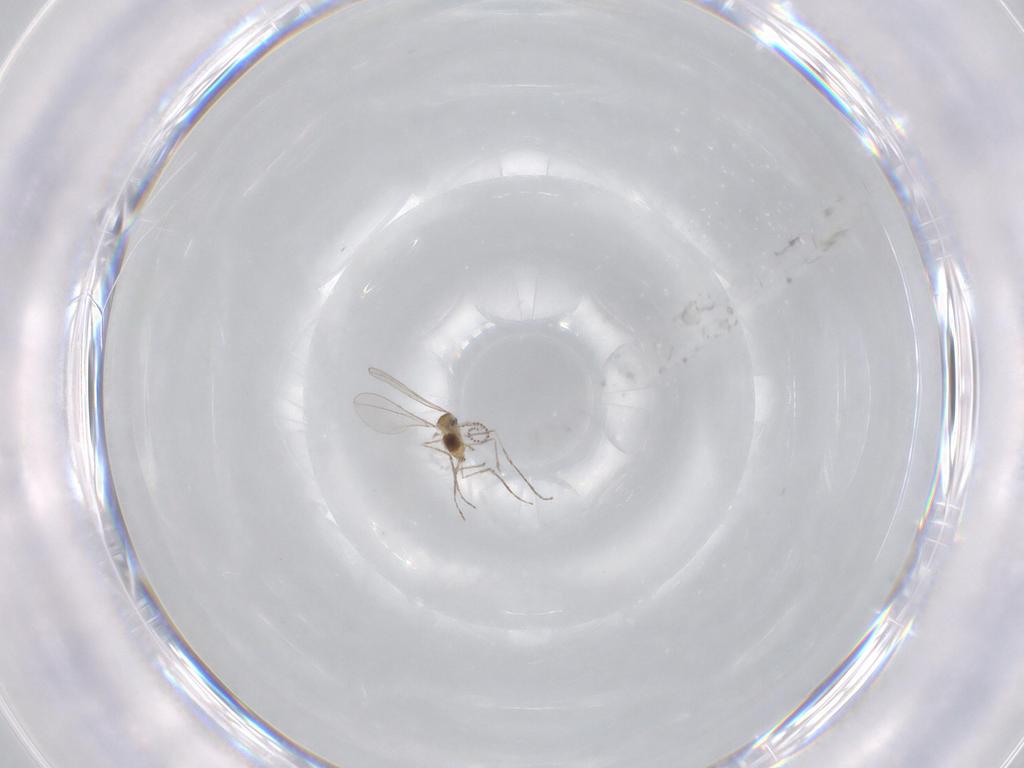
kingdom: Animalia
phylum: Arthropoda
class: Insecta
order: Diptera
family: Cecidomyiidae
